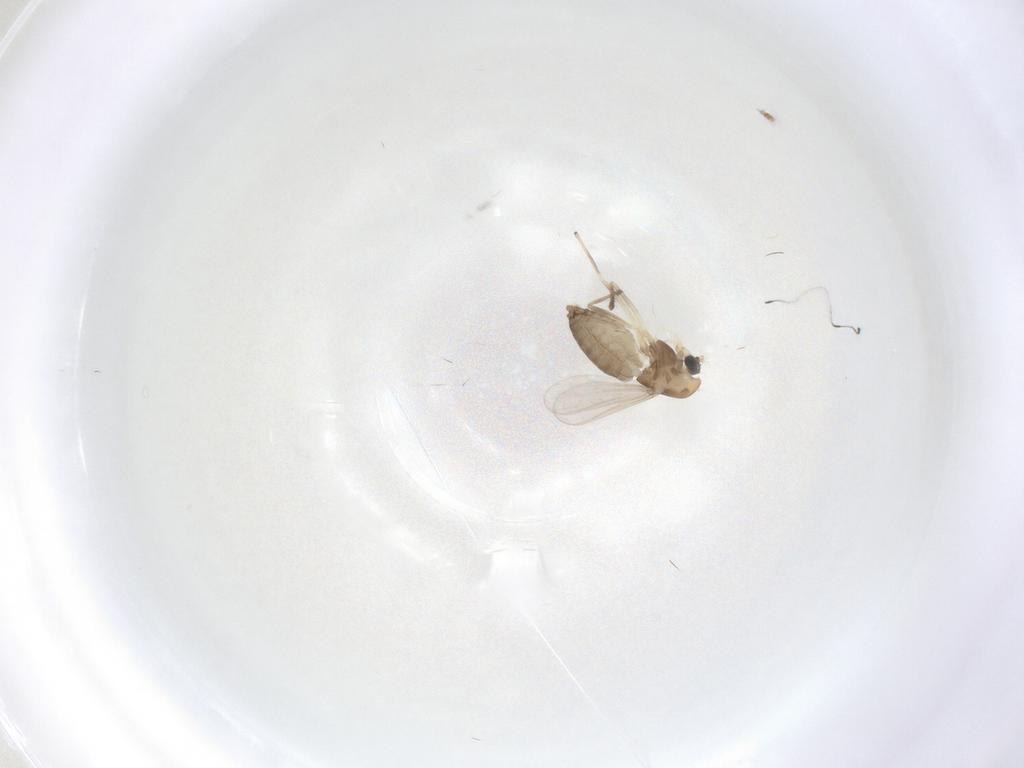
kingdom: Animalia
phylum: Arthropoda
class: Insecta
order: Diptera
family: Chironomidae
